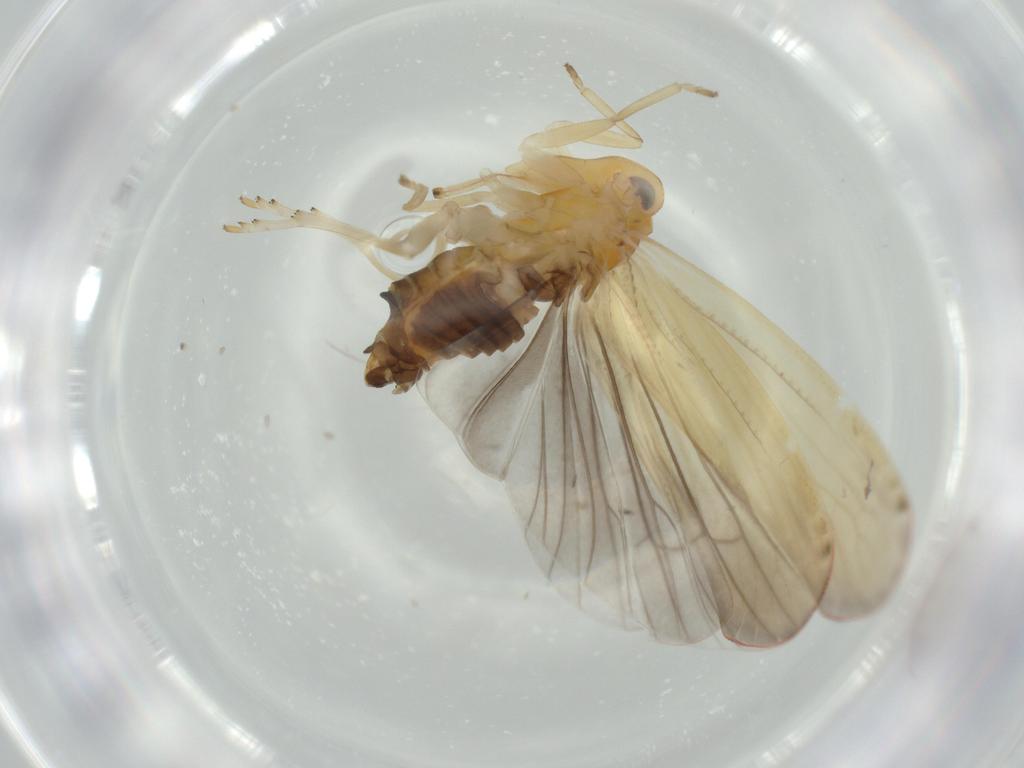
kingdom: Animalia
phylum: Arthropoda
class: Insecta
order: Hemiptera
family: Derbidae
